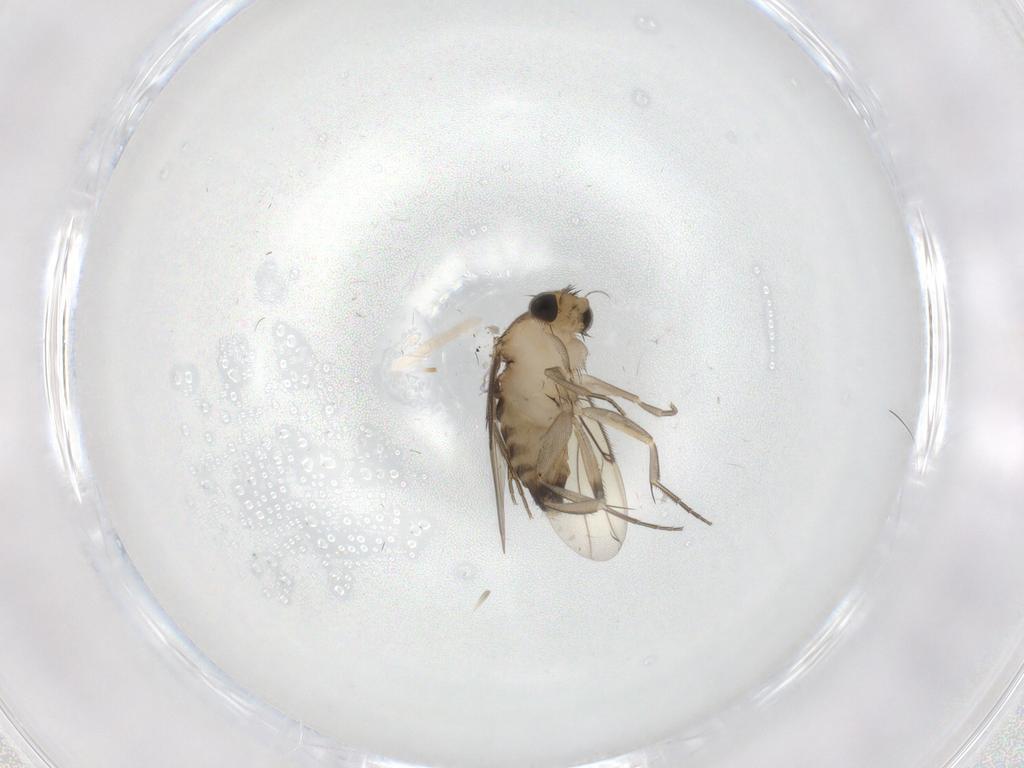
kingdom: Animalia
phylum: Arthropoda
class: Insecta
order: Diptera
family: Phoridae
